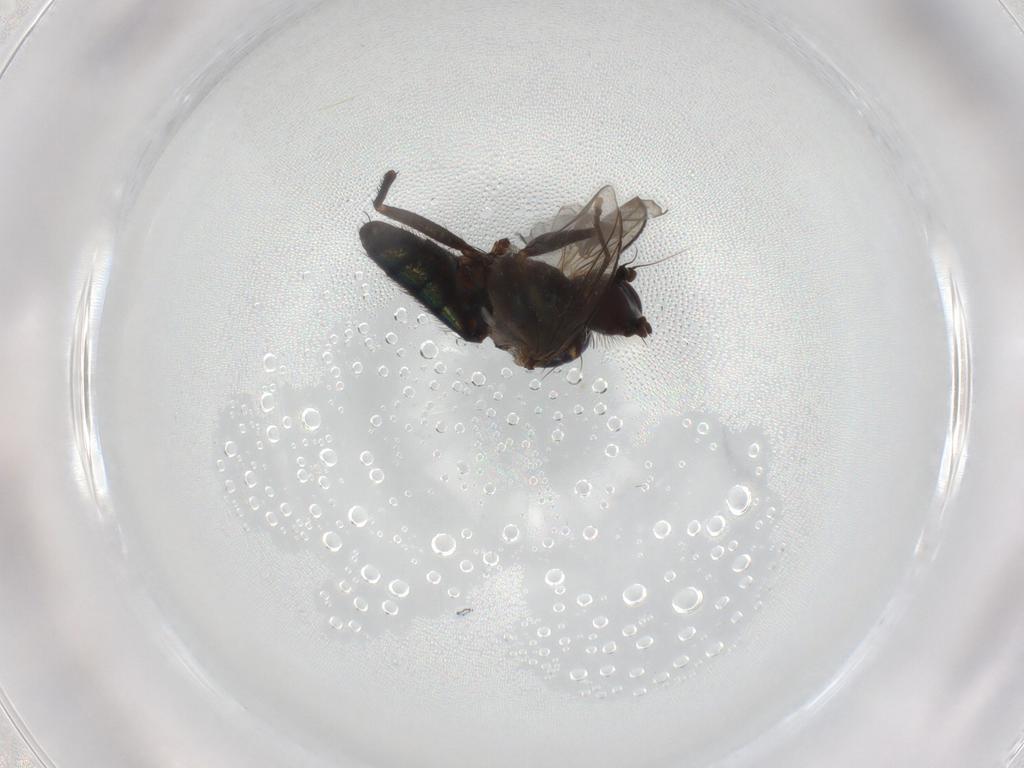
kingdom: Animalia
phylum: Arthropoda
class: Insecta
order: Diptera
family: Dolichopodidae
